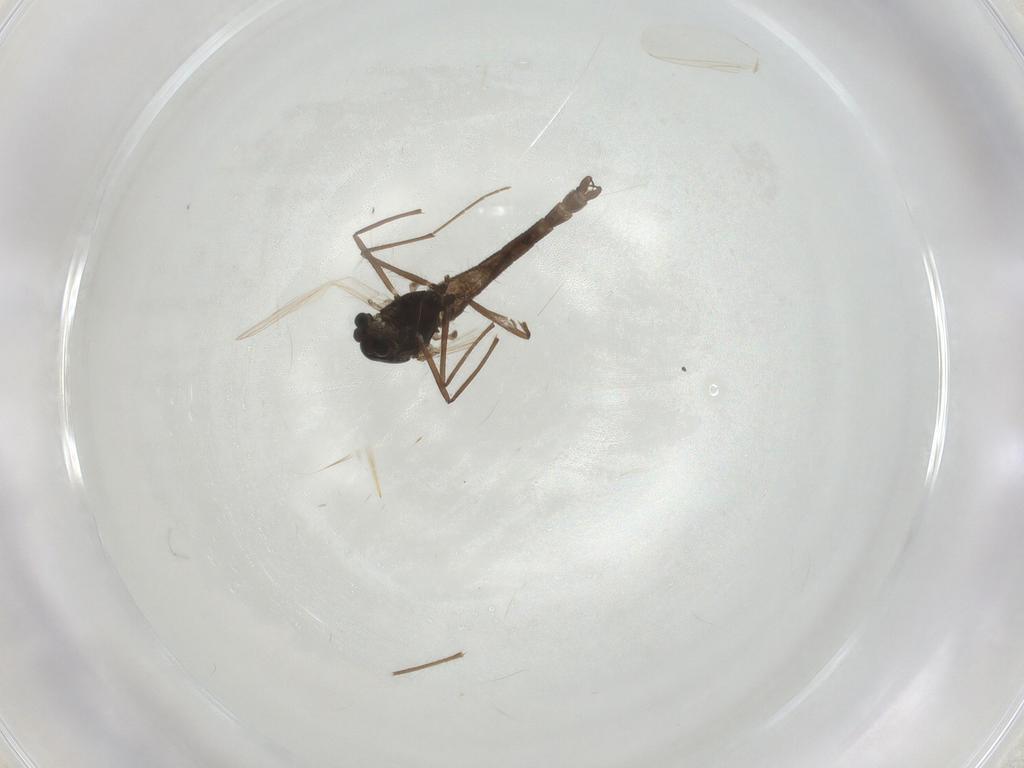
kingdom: Animalia
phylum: Arthropoda
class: Insecta
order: Diptera
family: Chironomidae
